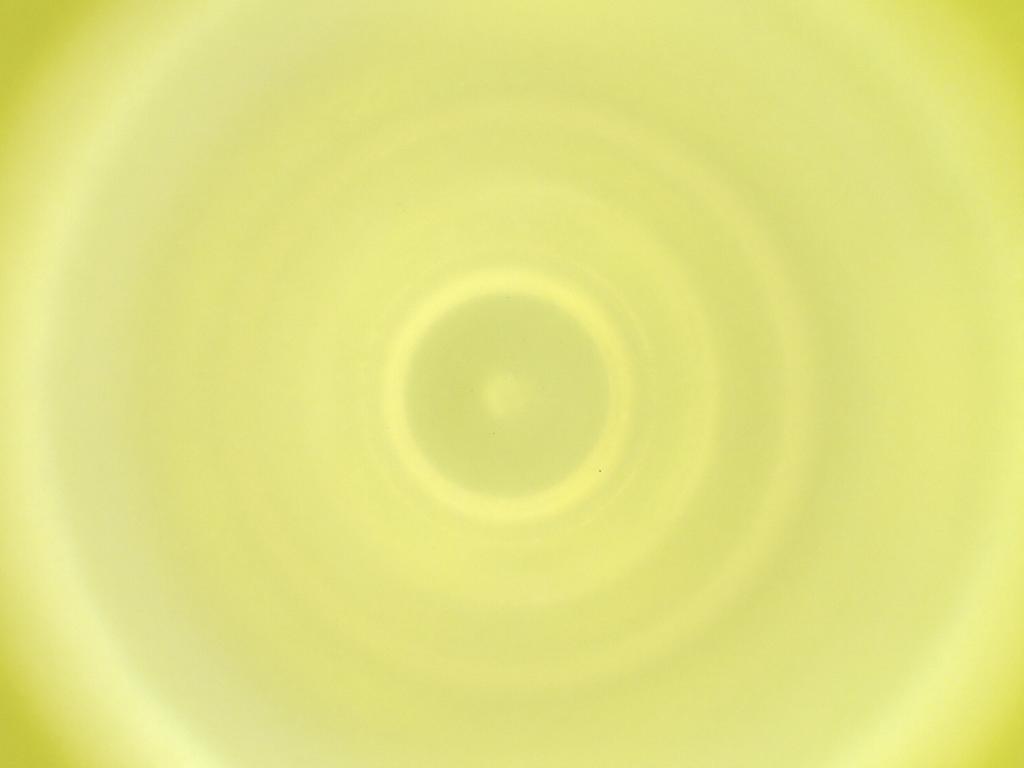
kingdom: Animalia
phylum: Arthropoda
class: Insecta
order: Diptera
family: Cecidomyiidae
